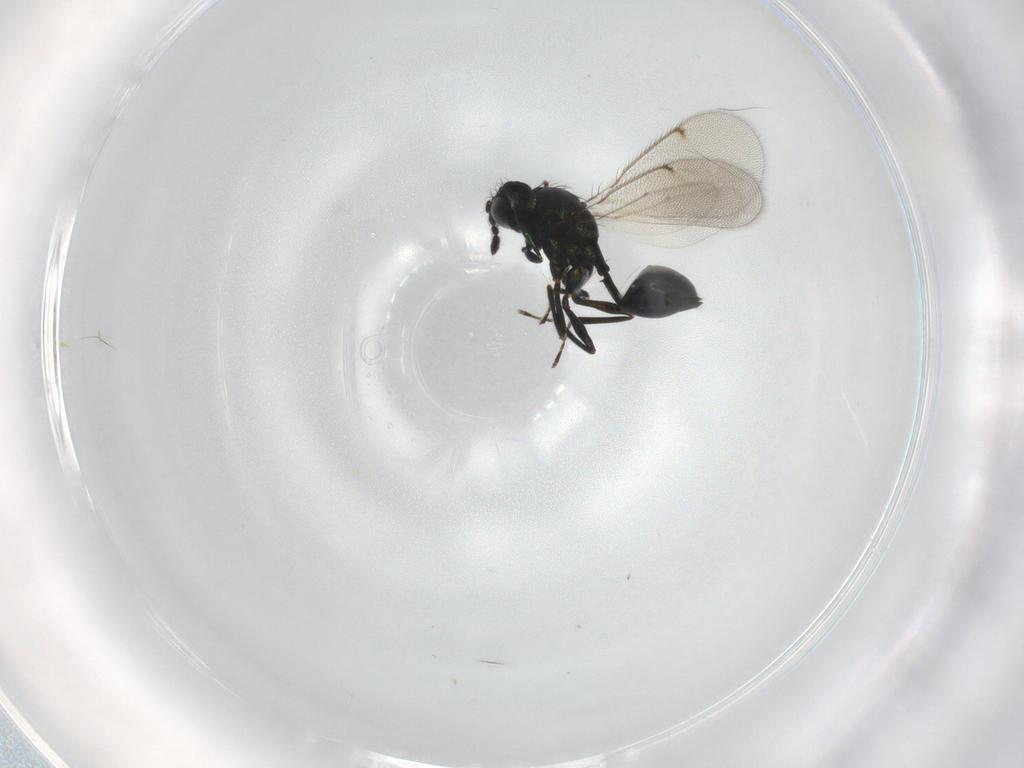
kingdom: Animalia
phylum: Arthropoda
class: Insecta
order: Hymenoptera
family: Eulophidae
